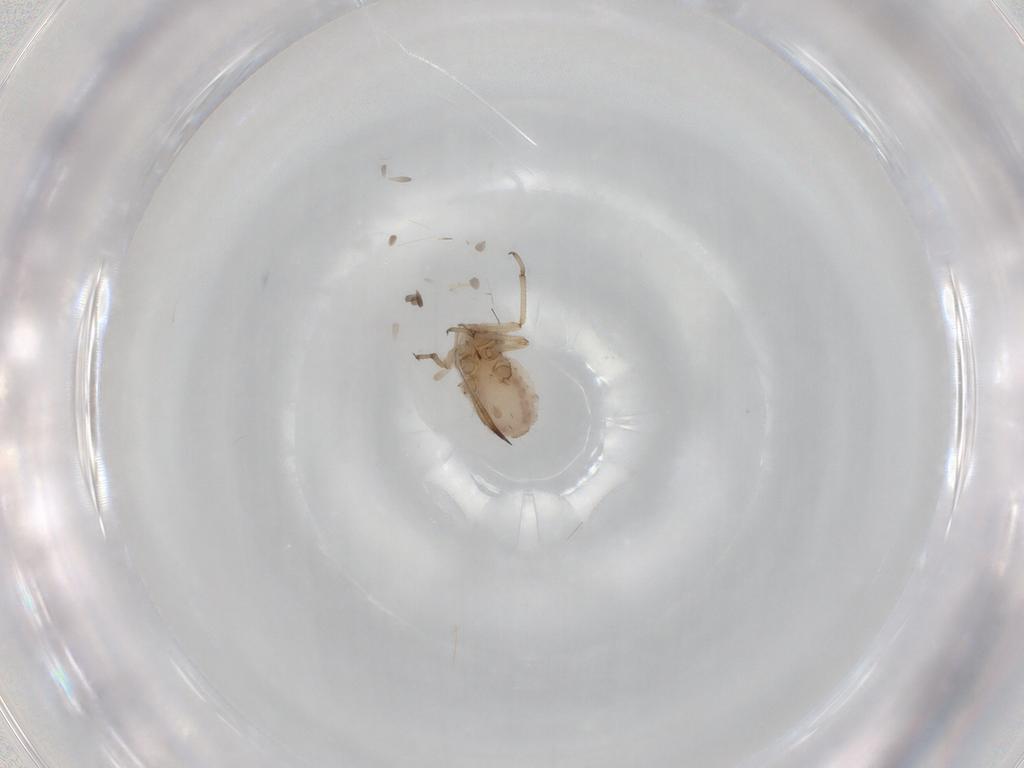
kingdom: Animalia
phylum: Arthropoda
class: Insecta
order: Hemiptera
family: Aphididae
